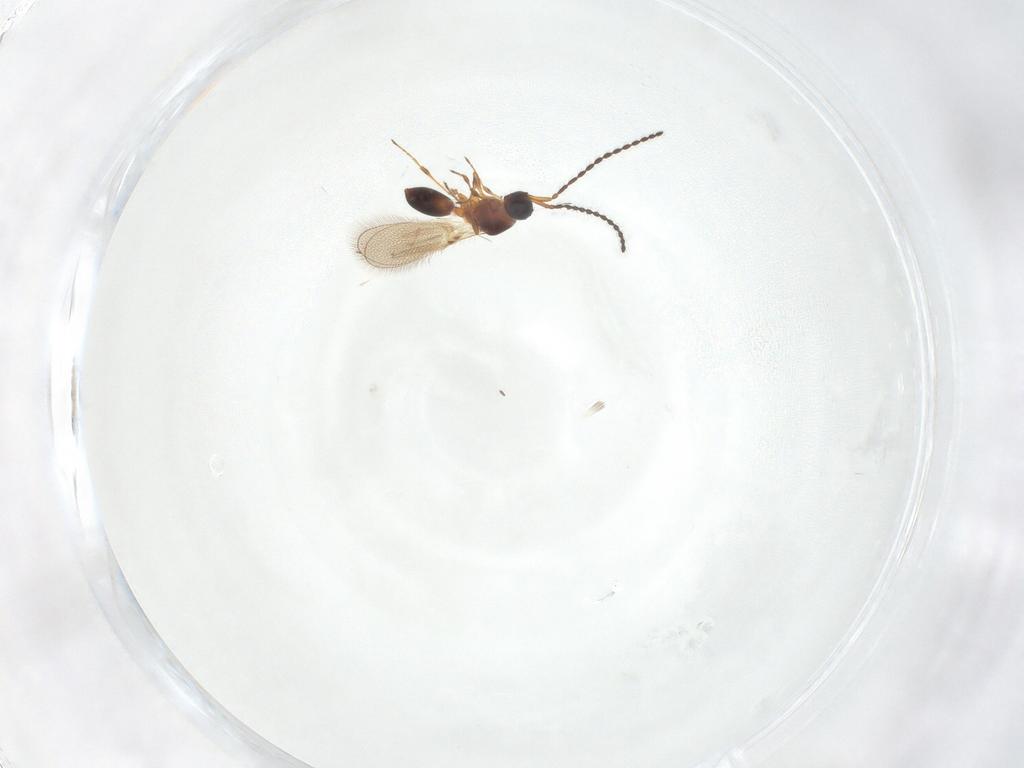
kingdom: Animalia
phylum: Arthropoda
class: Insecta
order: Hymenoptera
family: Diapriidae
